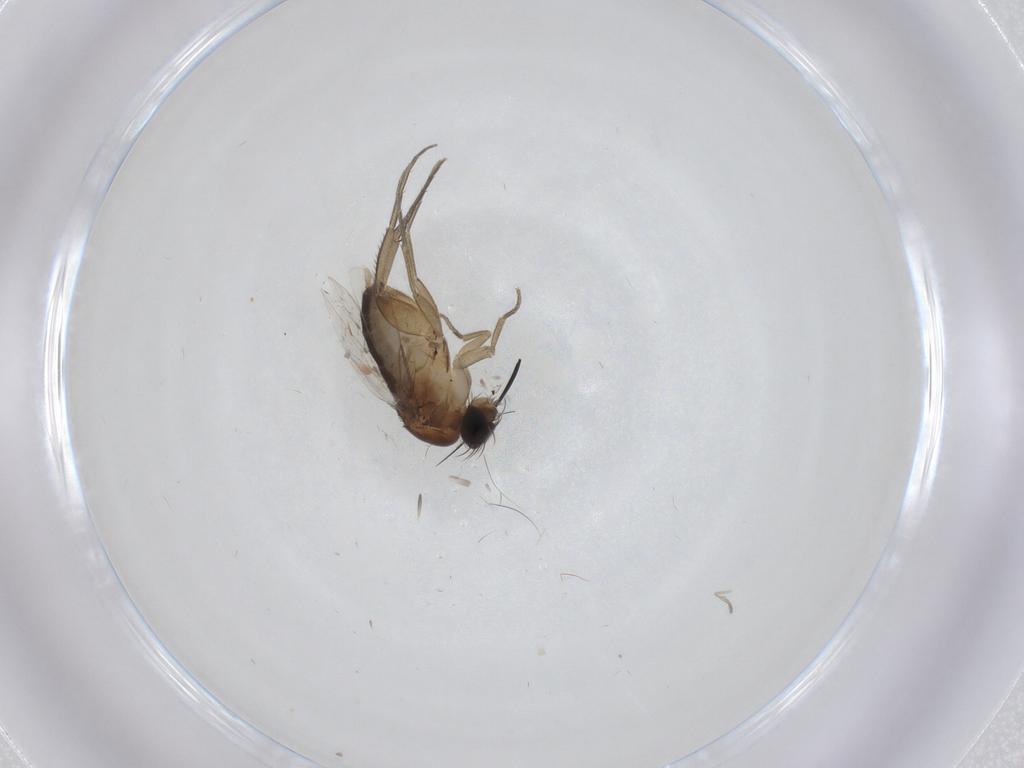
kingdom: Animalia
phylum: Arthropoda
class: Insecta
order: Diptera
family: Phoridae
